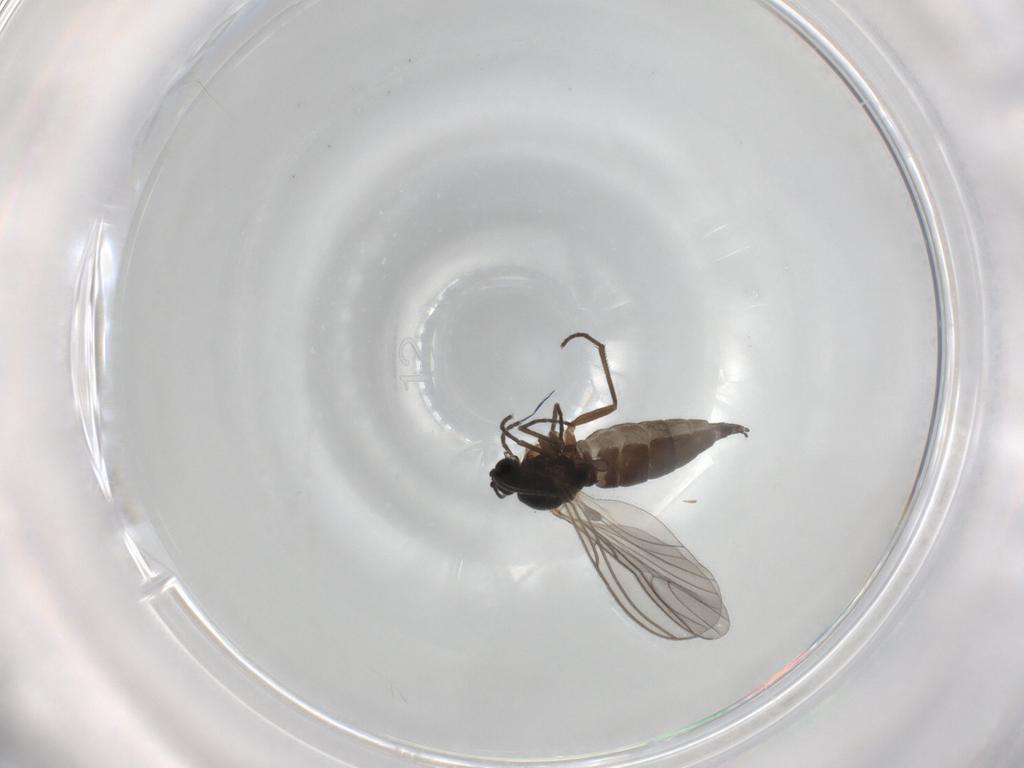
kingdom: Animalia
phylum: Arthropoda
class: Insecta
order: Diptera
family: Sciaridae
